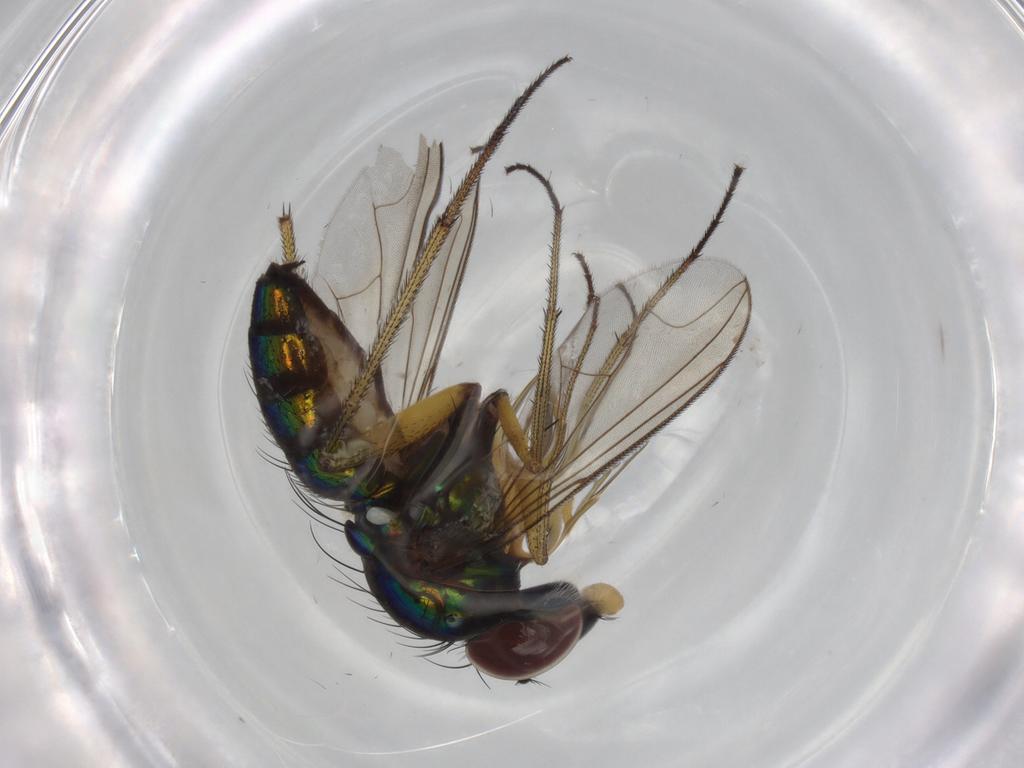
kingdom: Animalia
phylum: Arthropoda
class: Insecta
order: Diptera
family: Dolichopodidae
